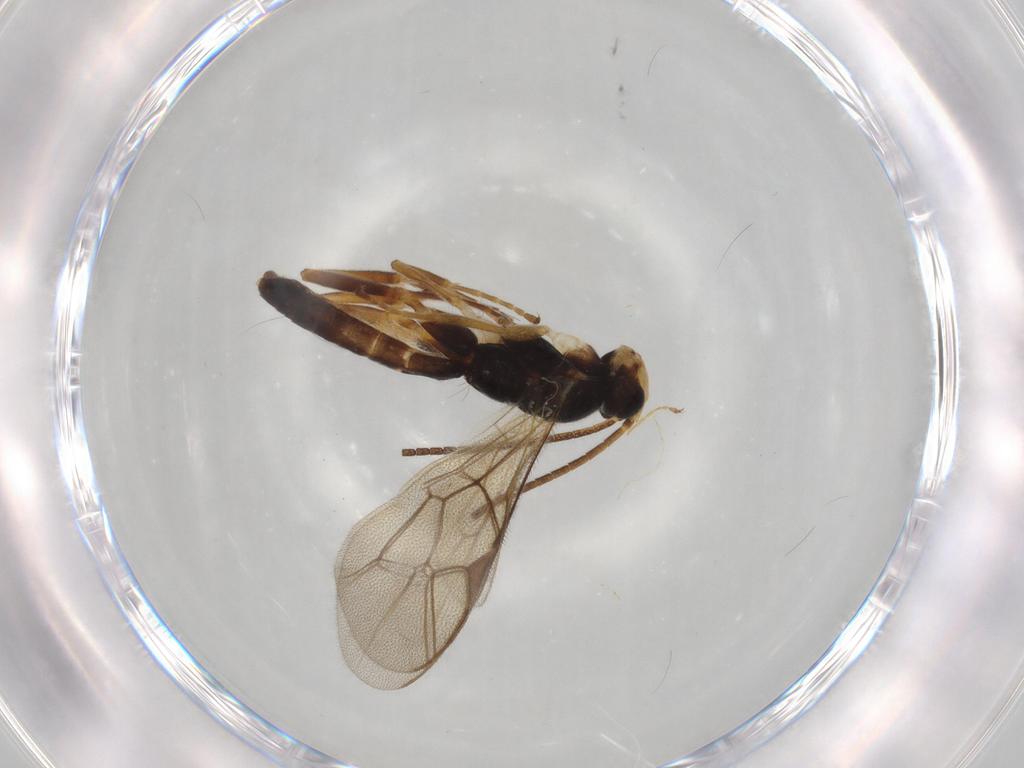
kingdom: Animalia
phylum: Arthropoda
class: Insecta
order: Hymenoptera
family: Ichneumonidae
